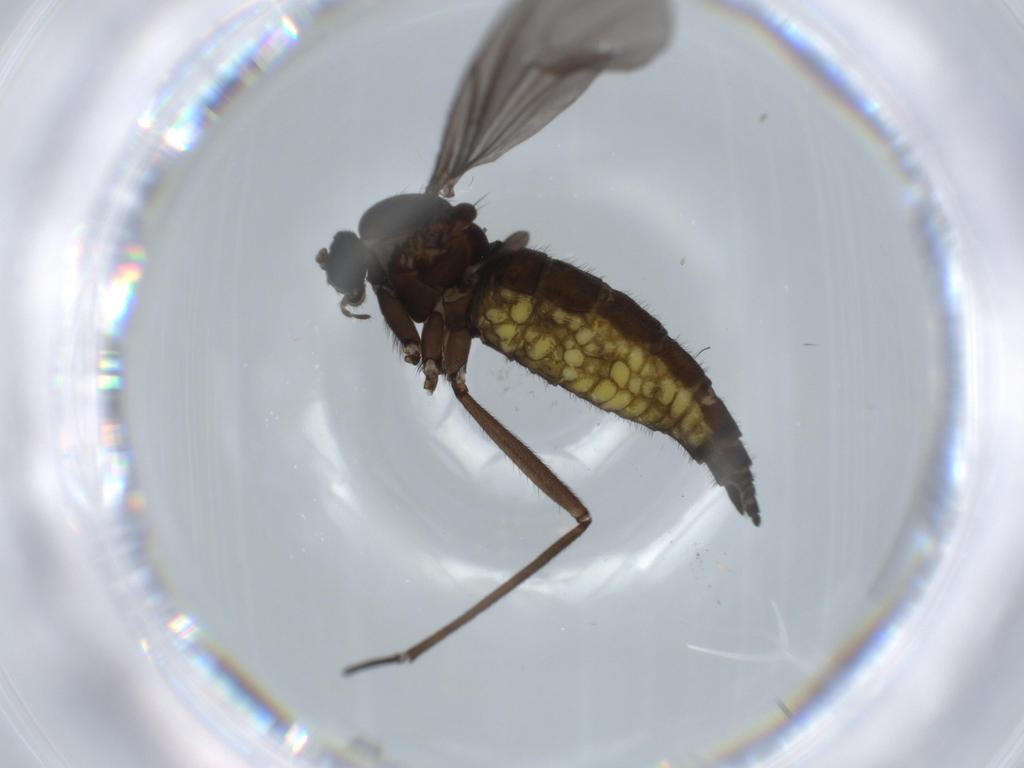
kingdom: Animalia
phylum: Arthropoda
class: Insecta
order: Diptera
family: Sciaridae
